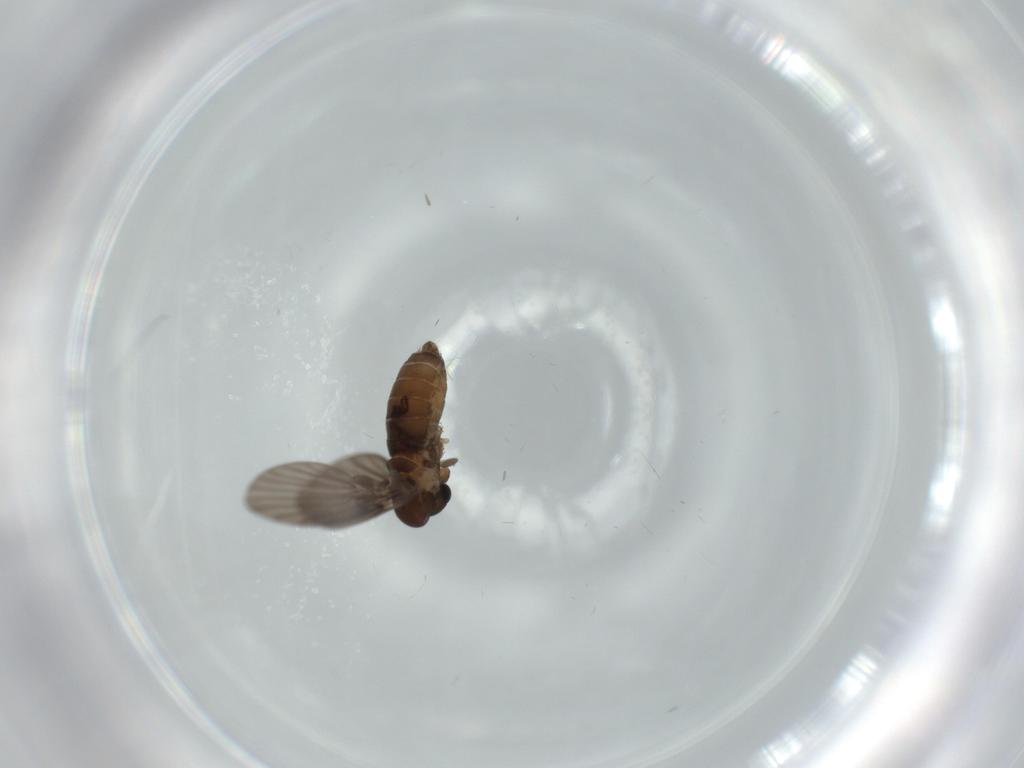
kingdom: Animalia
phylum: Arthropoda
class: Insecta
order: Diptera
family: Psychodidae
